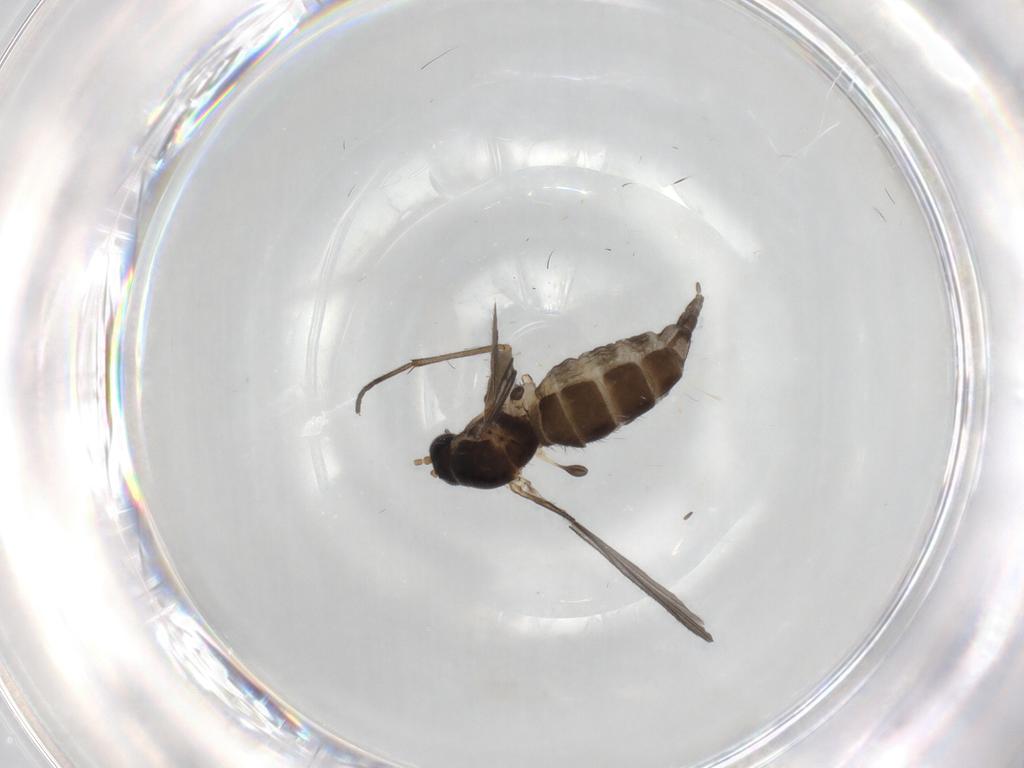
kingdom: Animalia
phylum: Arthropoda
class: Insecta
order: Diptera
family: Sciaridae
